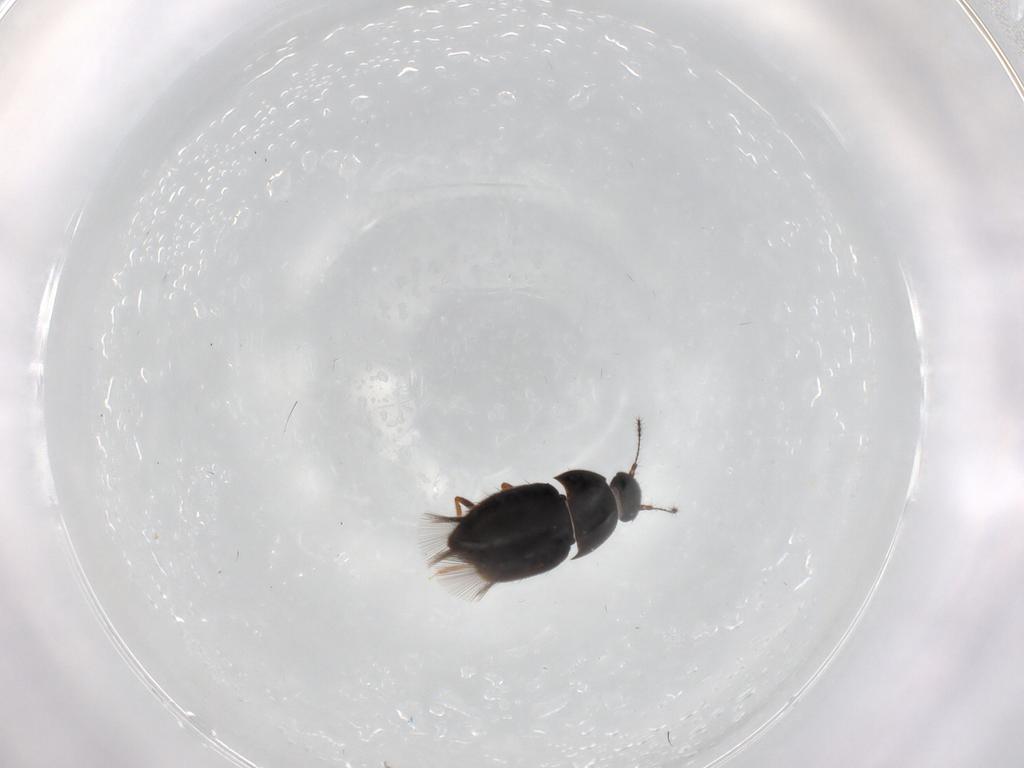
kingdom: Animalia
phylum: Arthropoda
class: Insecta
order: Coleoptera
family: Ptiliidae
